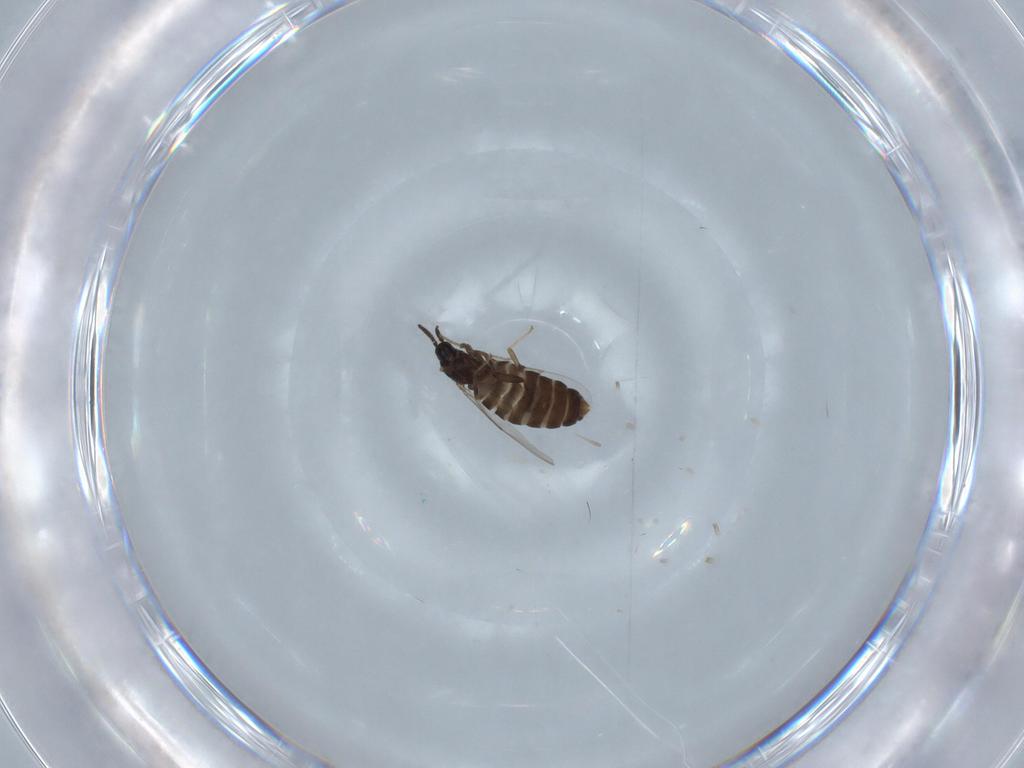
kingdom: Animalia
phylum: Arthropoda
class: Insecta
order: Diptera
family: Scatopsidae
